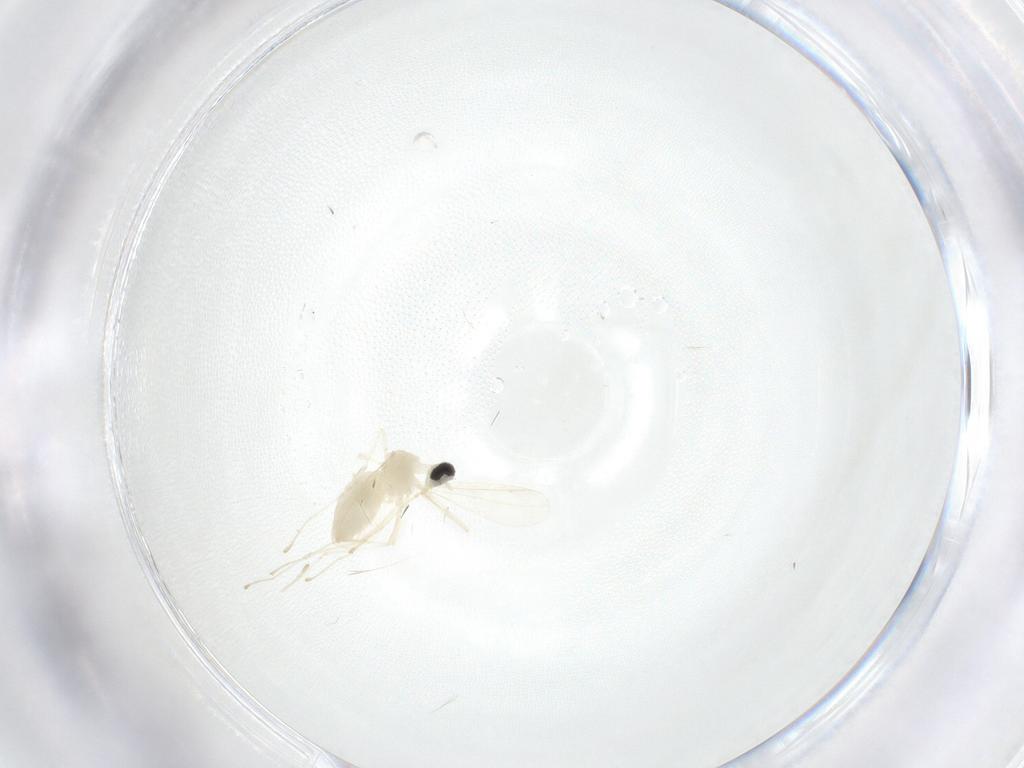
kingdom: Animalia
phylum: Arthropoda
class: Insecta
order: Diptera
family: Cecidomyiidae
